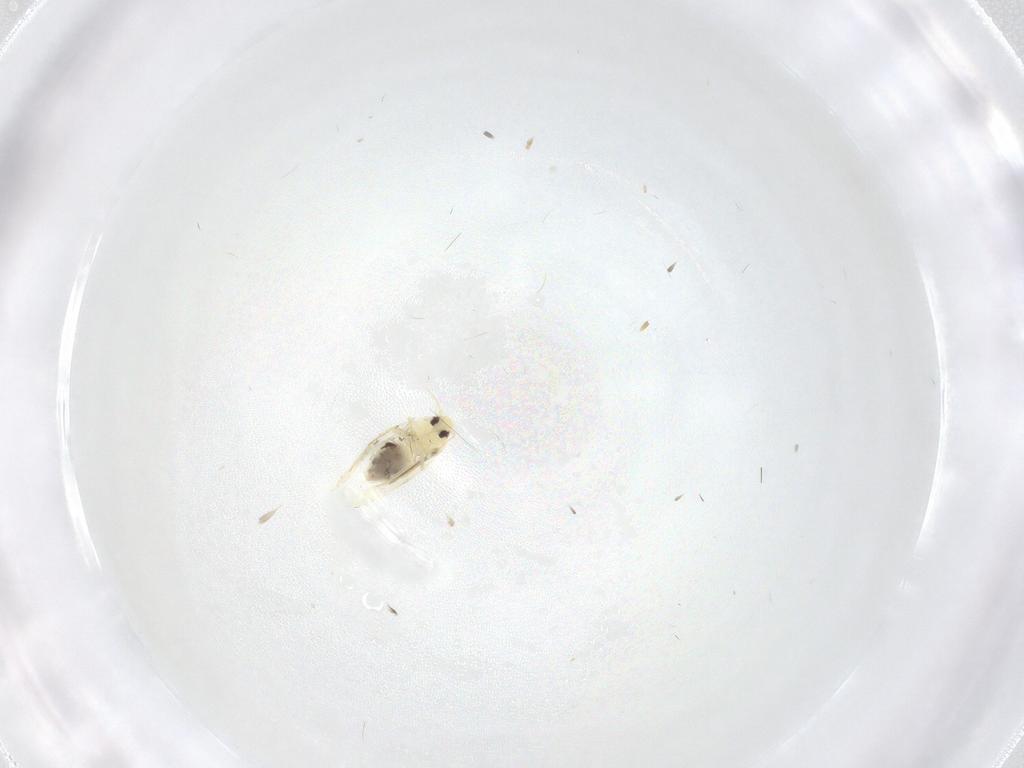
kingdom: Animalia
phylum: Arthropoda
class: Insecta
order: Hemiptera
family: Aleyrodidae
